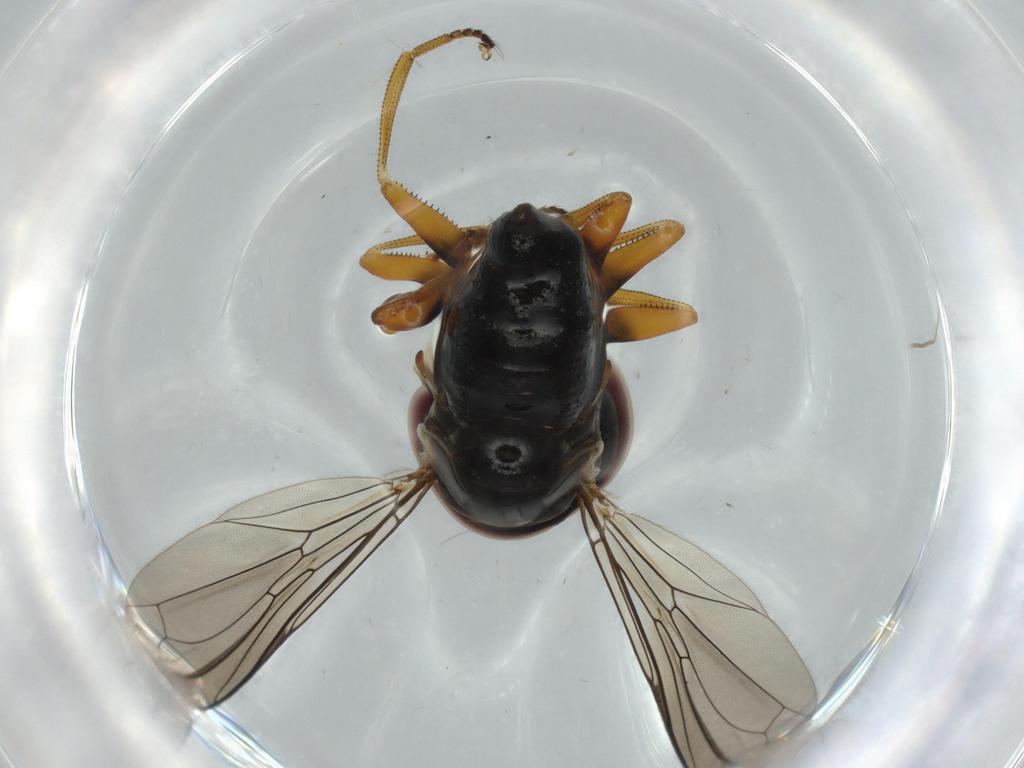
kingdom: Animalia
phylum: Arthropoda
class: Insecta
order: Diptera
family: Pipunculidae
